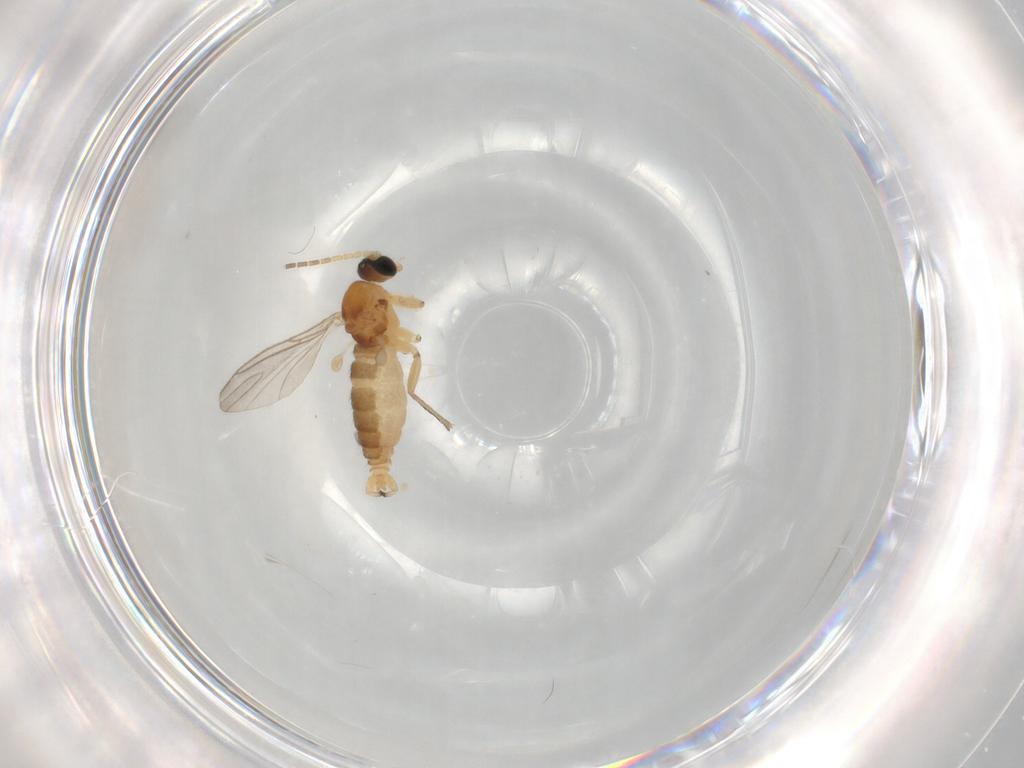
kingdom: Animalia
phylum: Arthropoda
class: Insecta
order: Diptera
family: Sciaridae
